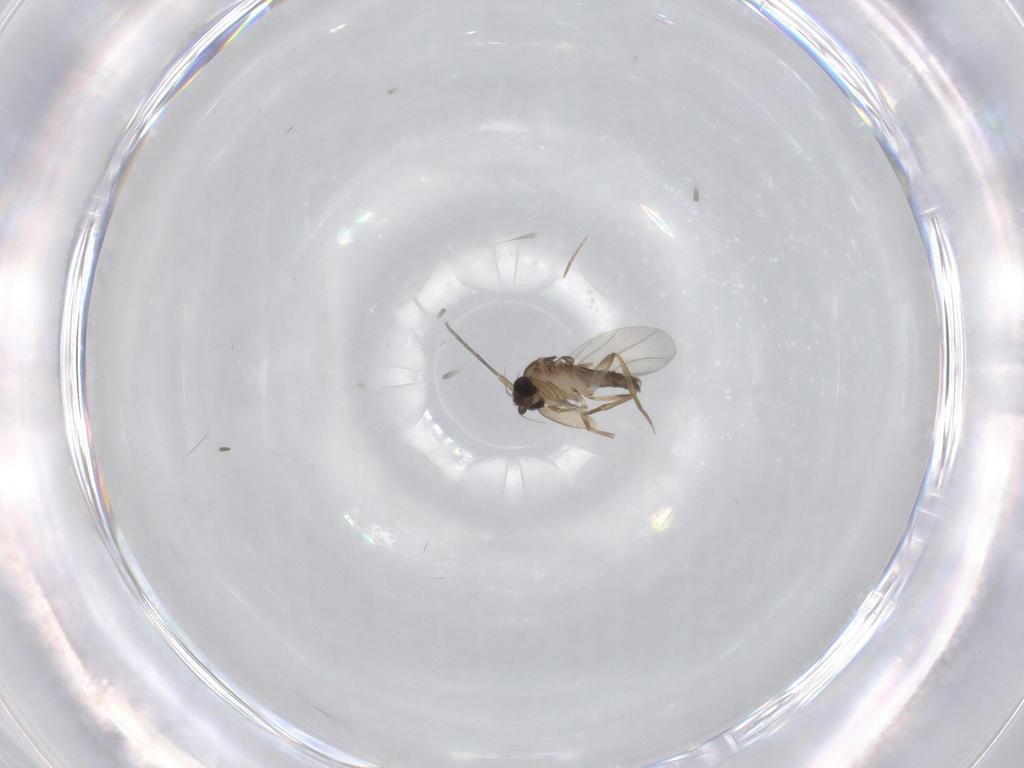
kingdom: Animalia
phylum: Arthropoda
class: Insecta
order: Diptera
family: Phoridae
